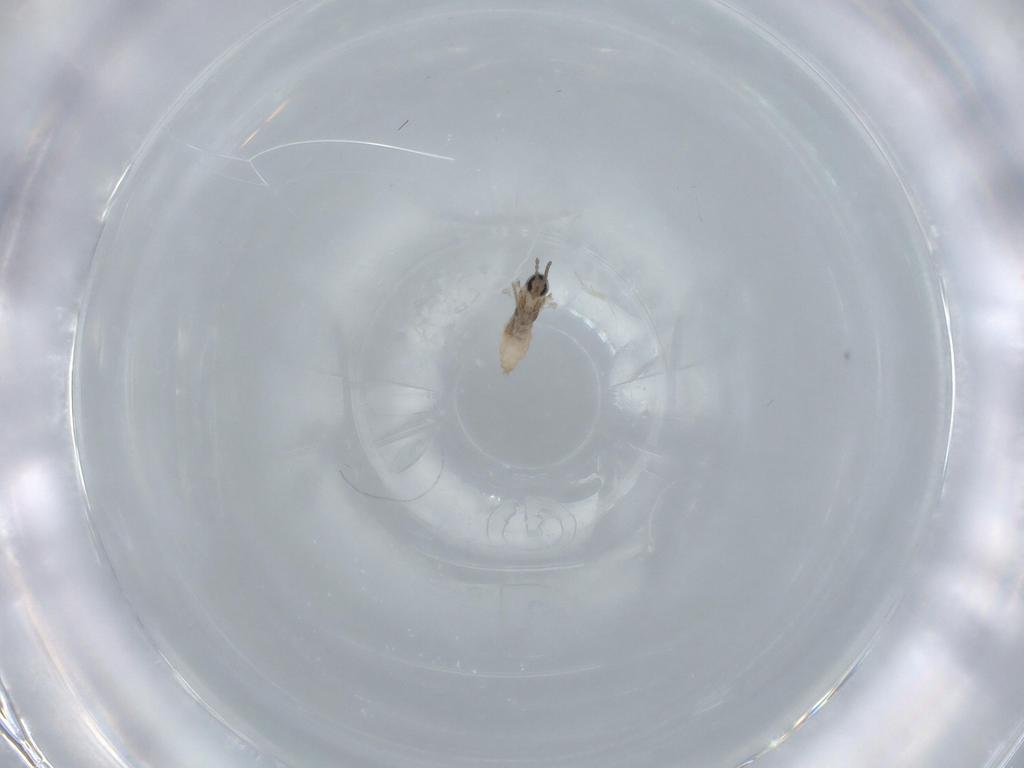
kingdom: Animalia
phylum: Arthropoda
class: Insecta
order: Diptera
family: Cecidomyiidae
